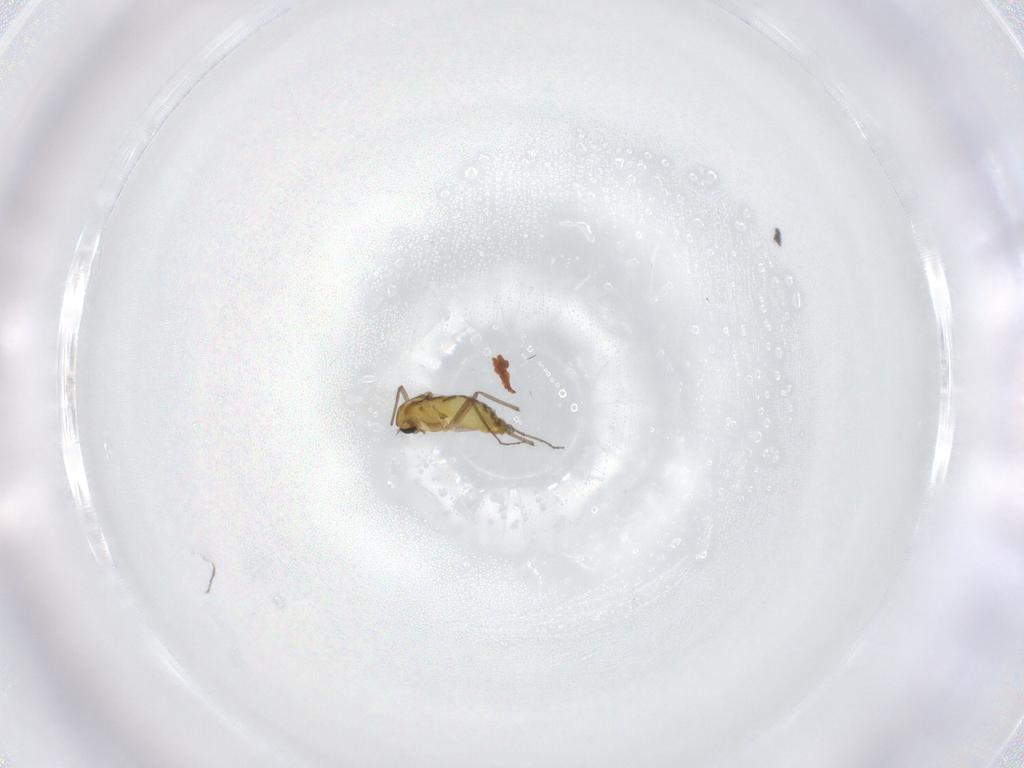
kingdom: Animalia
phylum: Arthropoda
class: Insecta
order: Diptera
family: Chironomidae
